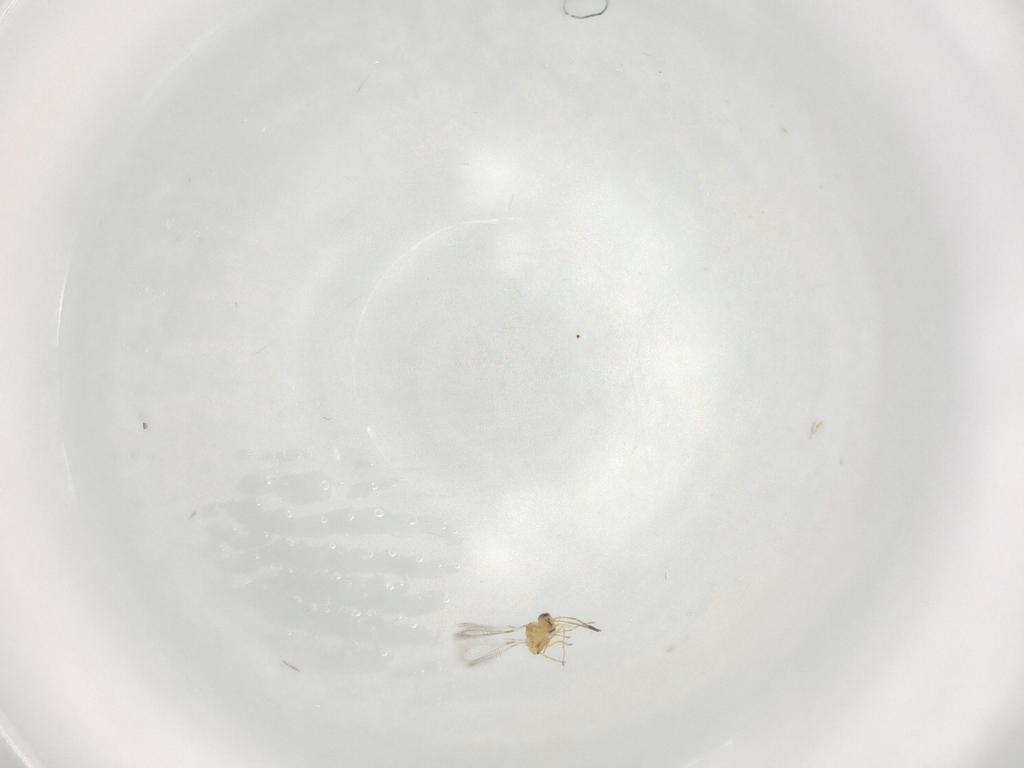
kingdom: Animalia
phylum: Arthropoda
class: Insecta
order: Hymenoptera
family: Mymaridae
